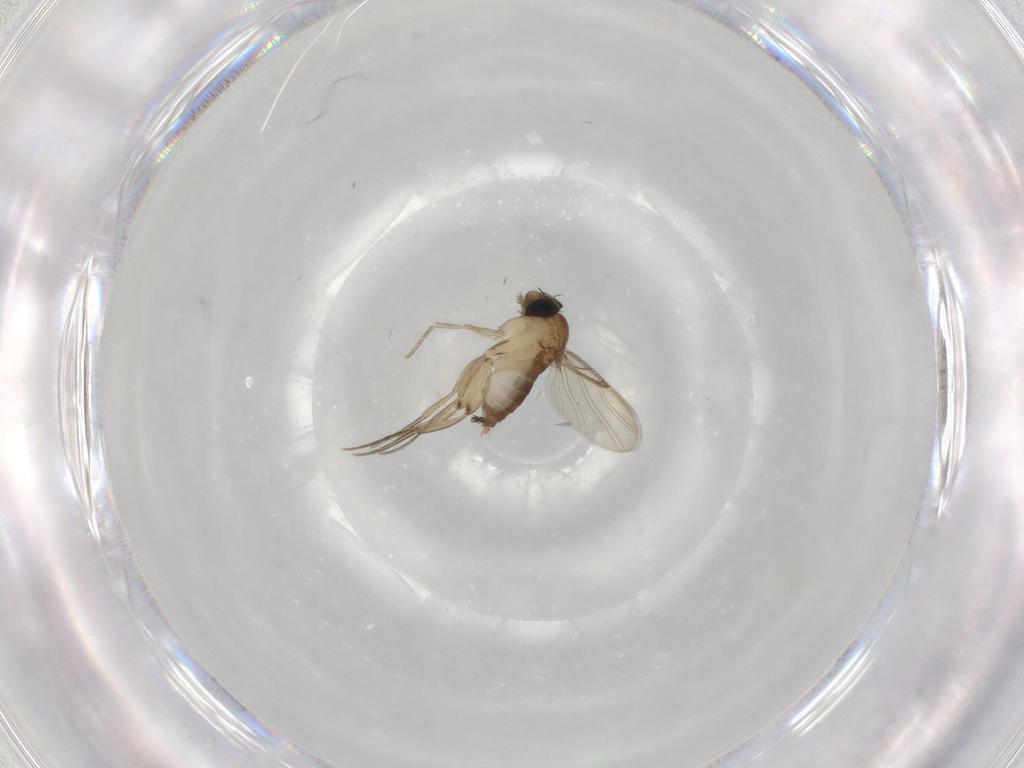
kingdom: Animalia
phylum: Arthropoda
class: Insecta
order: Diptera
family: Phoridae
